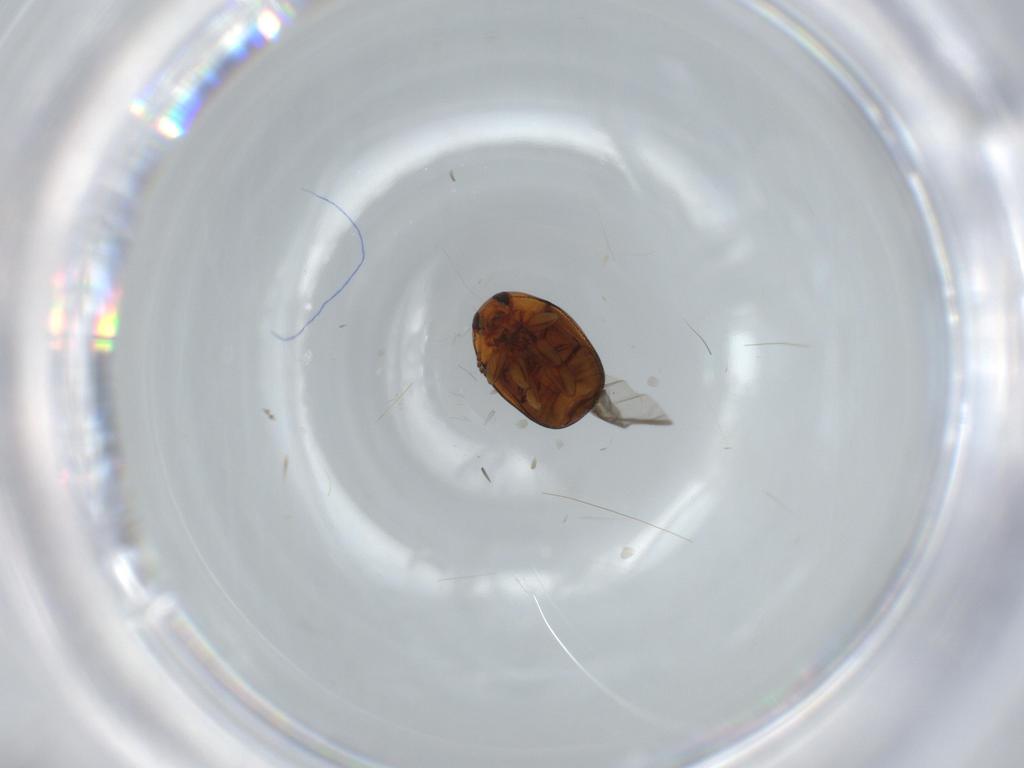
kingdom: Animalia
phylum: Arthropoda
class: Insecta
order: Coleoptera
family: Chrysomelidae
